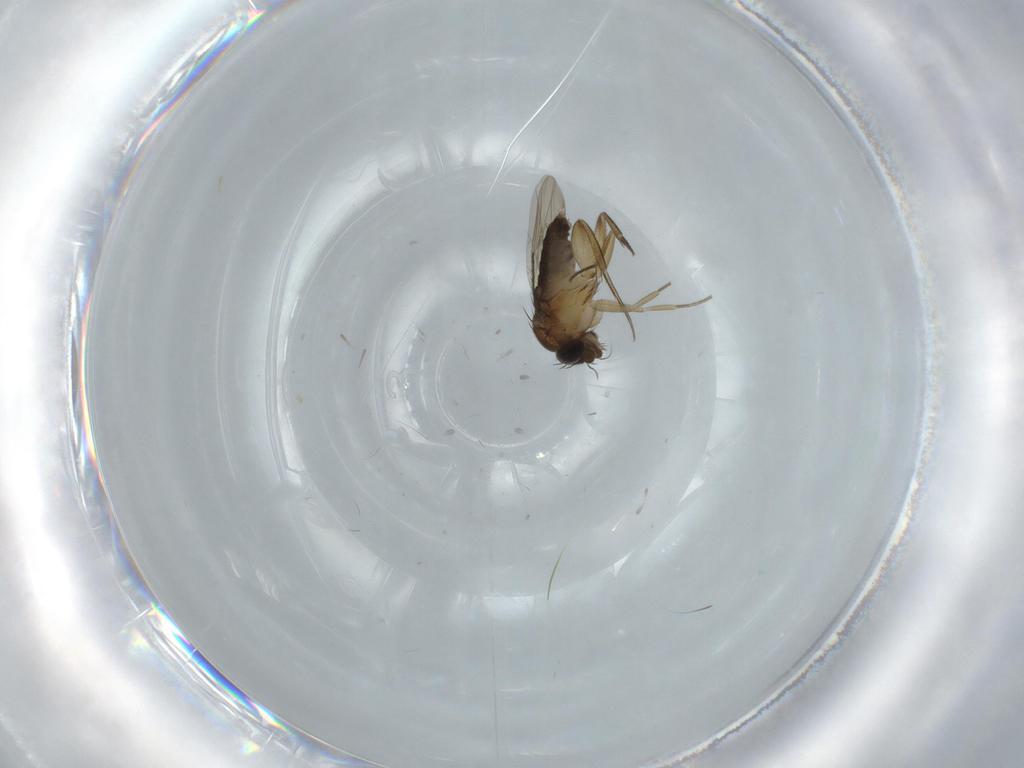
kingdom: Animalia
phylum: Arthropoda
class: Insecta
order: Diptera
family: Phoridae
